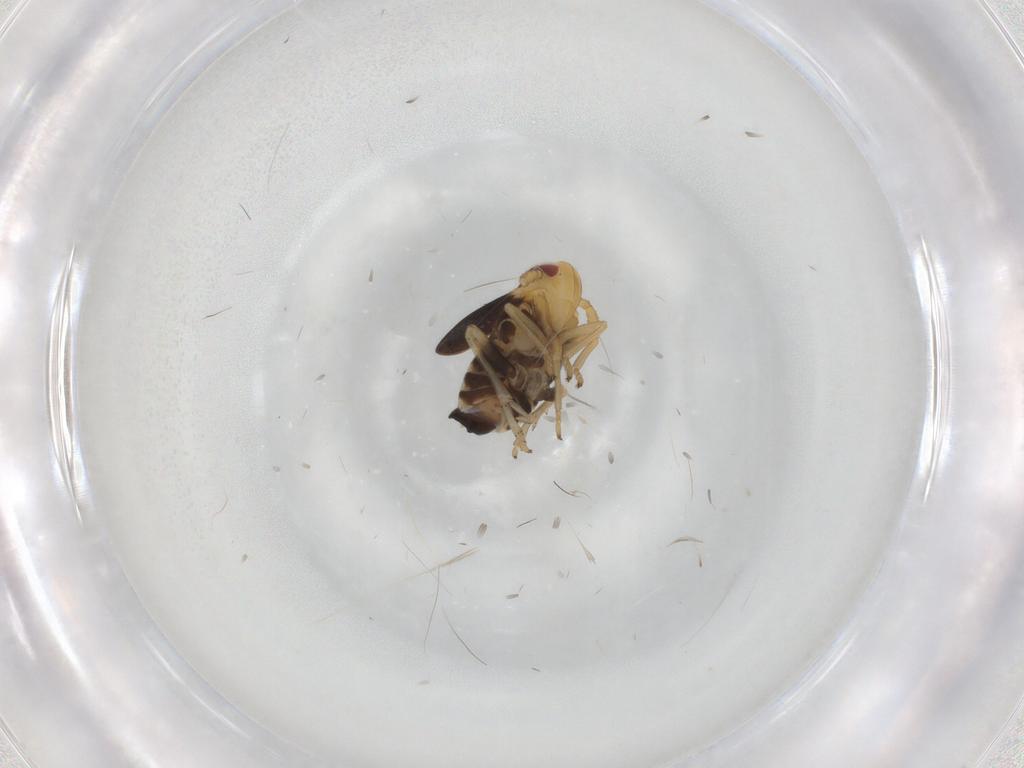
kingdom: Animalia
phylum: Arthropoda
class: Insecta
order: Hemiptera
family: Delphacidae
